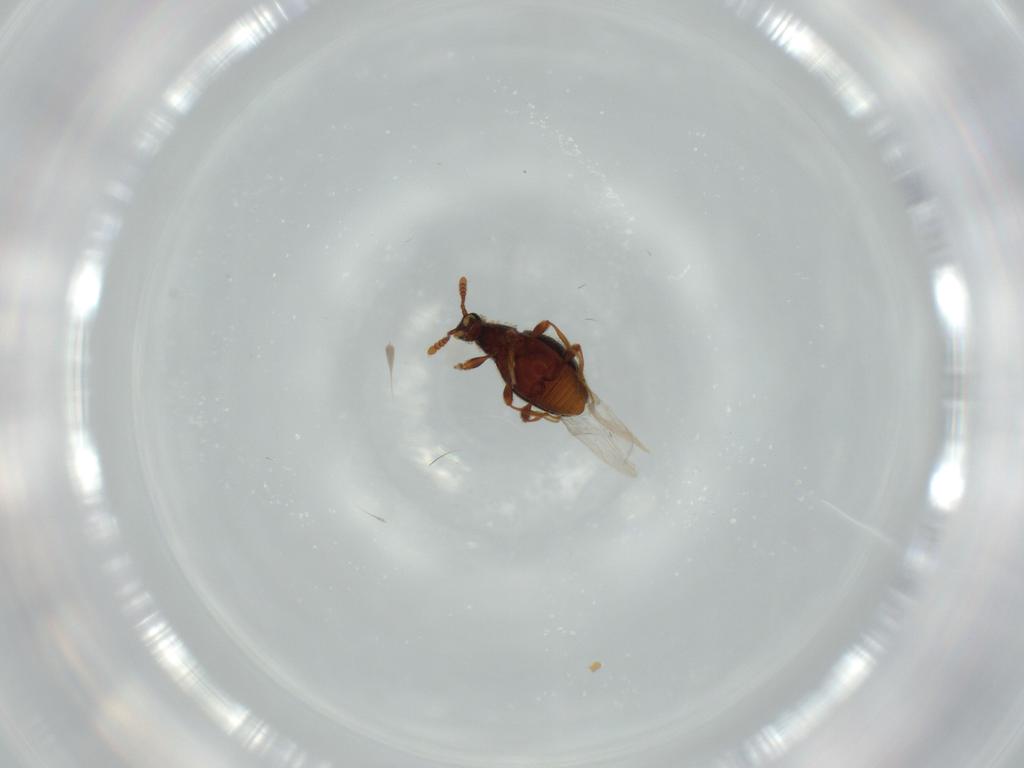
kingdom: Animalia
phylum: Arthropoda
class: Insecta
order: Coleoptera
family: Staphylinidae
